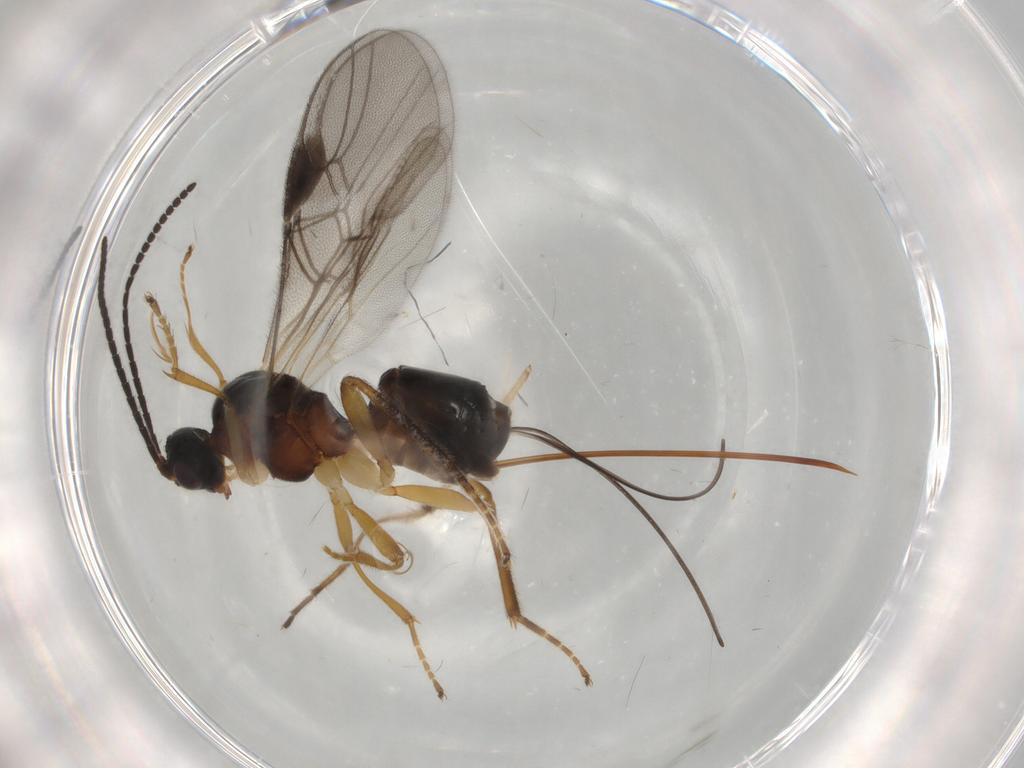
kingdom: Animalia
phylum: Arthropoda
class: Insecta
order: Hymenoptera
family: Braconidae
